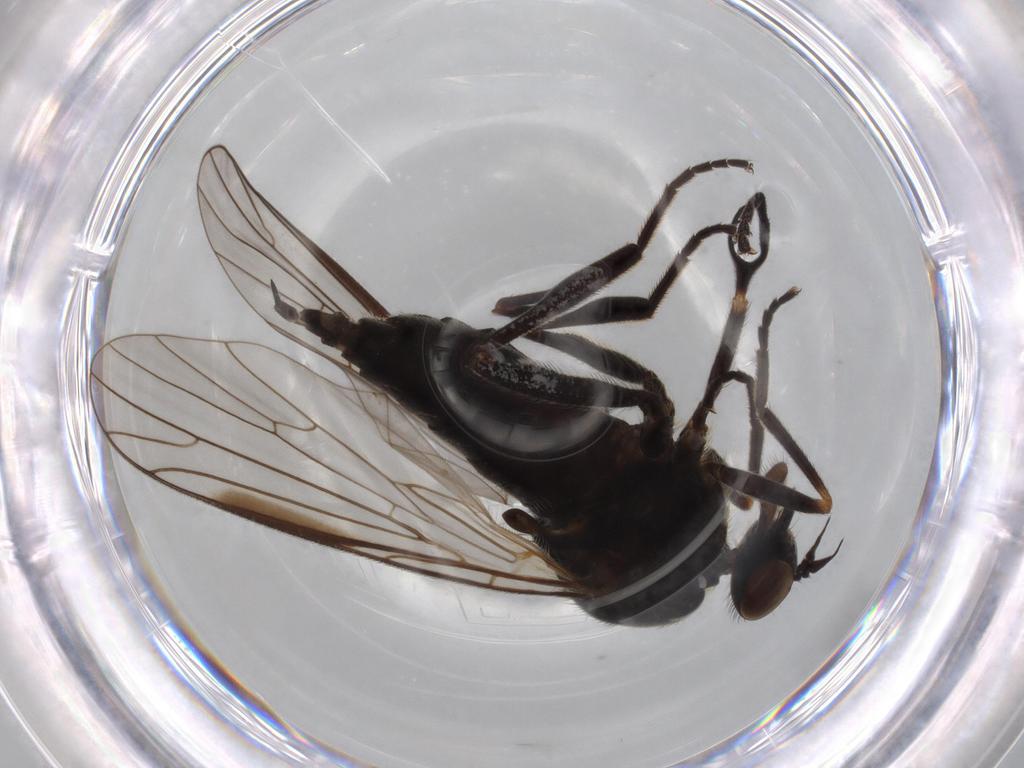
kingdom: Animalia
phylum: Arthropoda
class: Insecta
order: Diptera
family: Empididae
